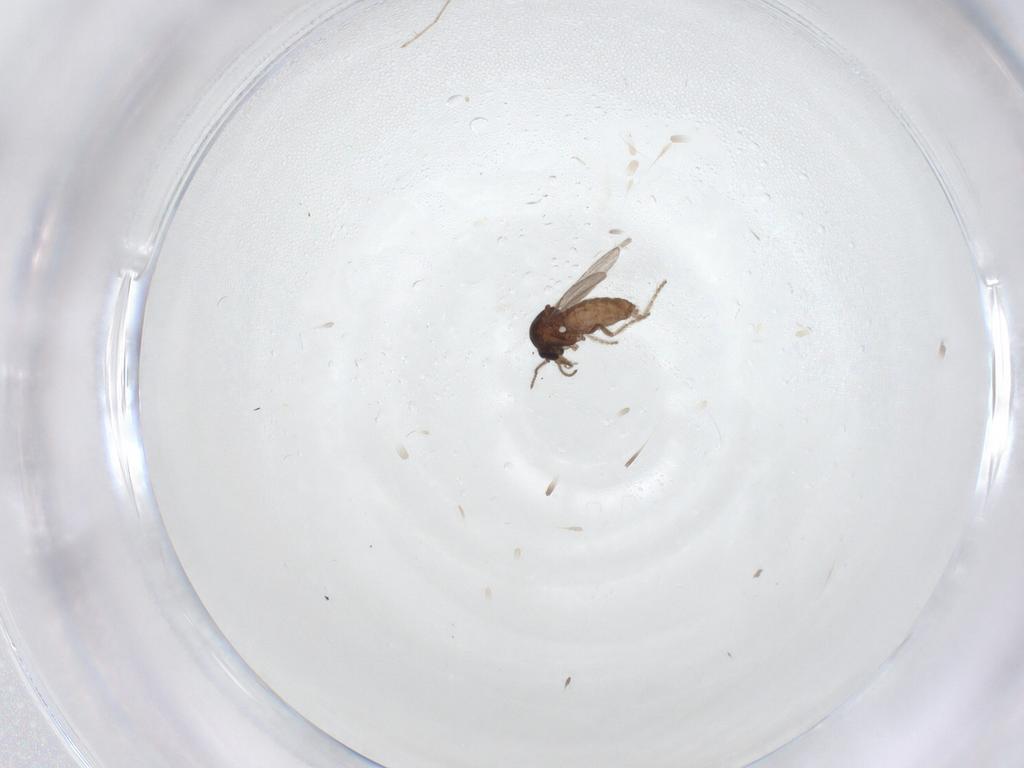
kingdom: Animalia
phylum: Arthropoda
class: Insecta
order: Diptera
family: Ceratopogonidae
